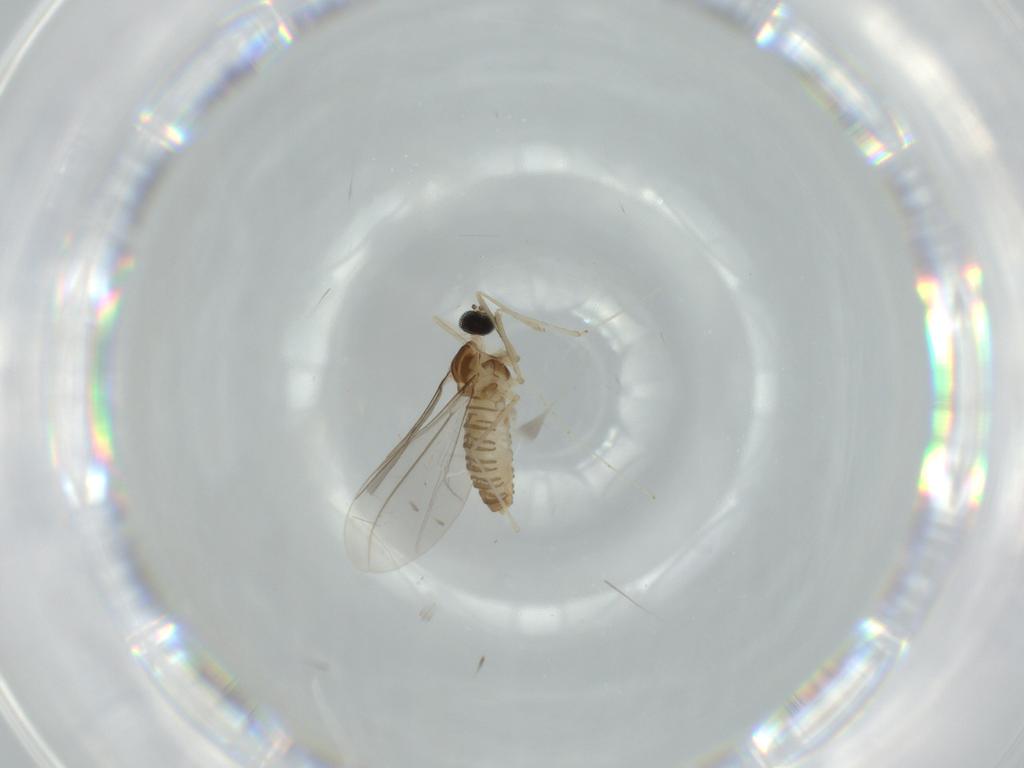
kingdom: Animalia
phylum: Arthropoda
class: Insecta
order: Diptera
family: Cecidomyiidae
